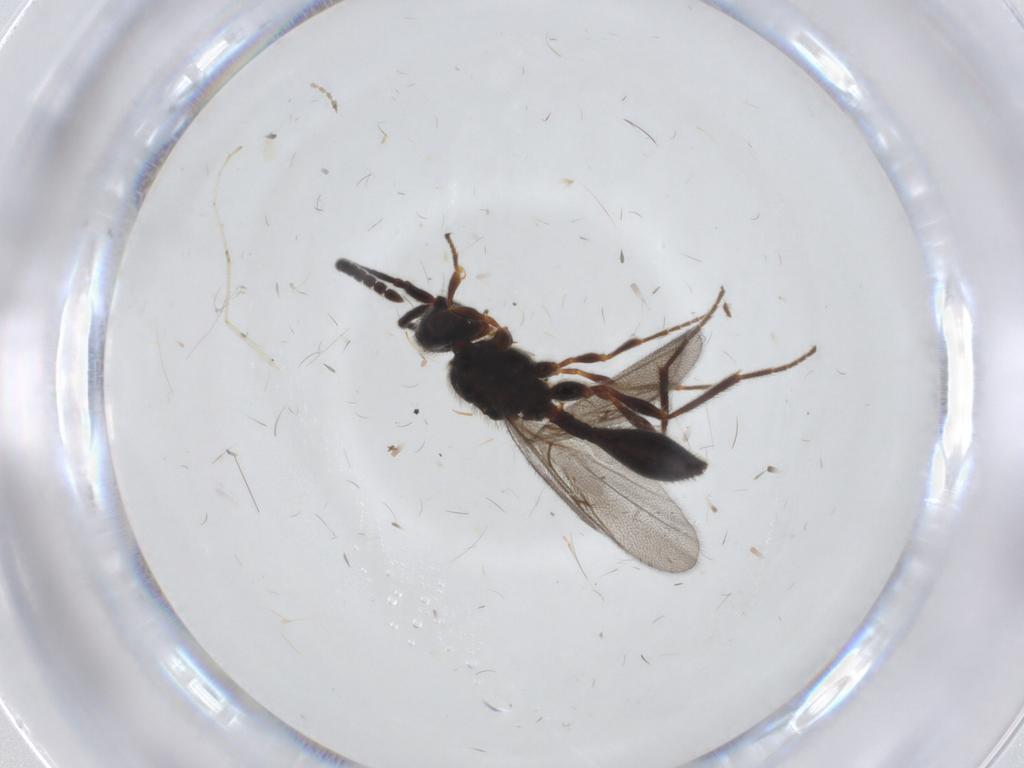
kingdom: Animalia
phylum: Arthropoda
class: Insecta
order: Hymenoptera
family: Diapriidae
